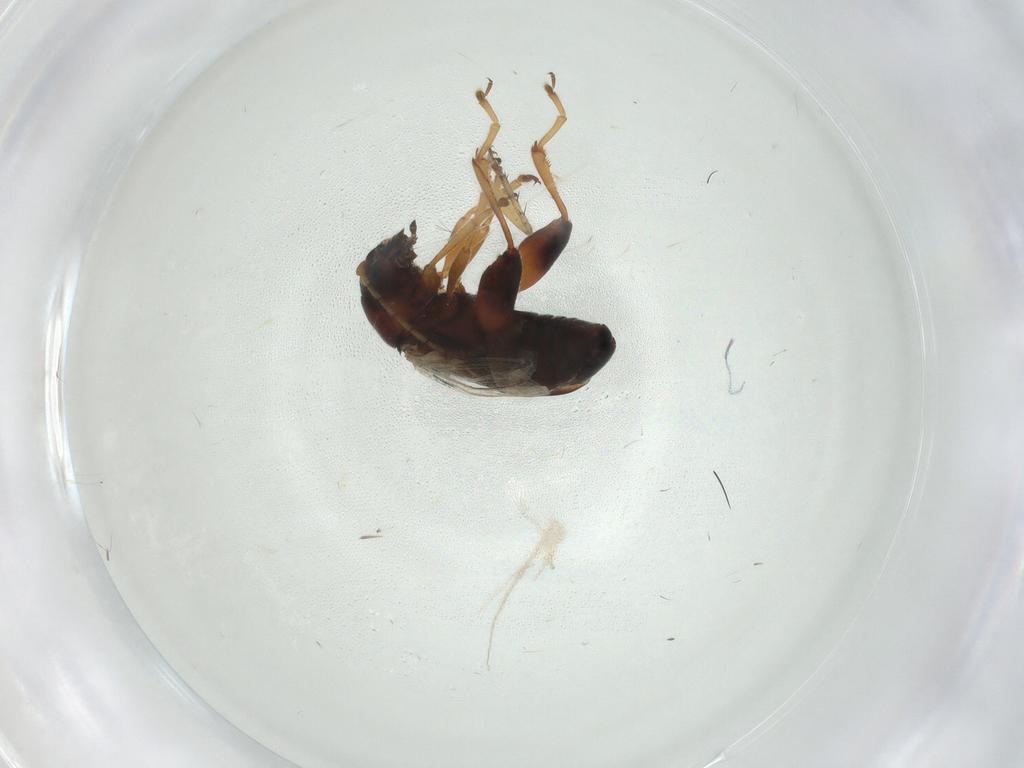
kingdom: Animalia
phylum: Arthropoda
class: Insecta
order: Coleoptera
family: Chrysomelidae
